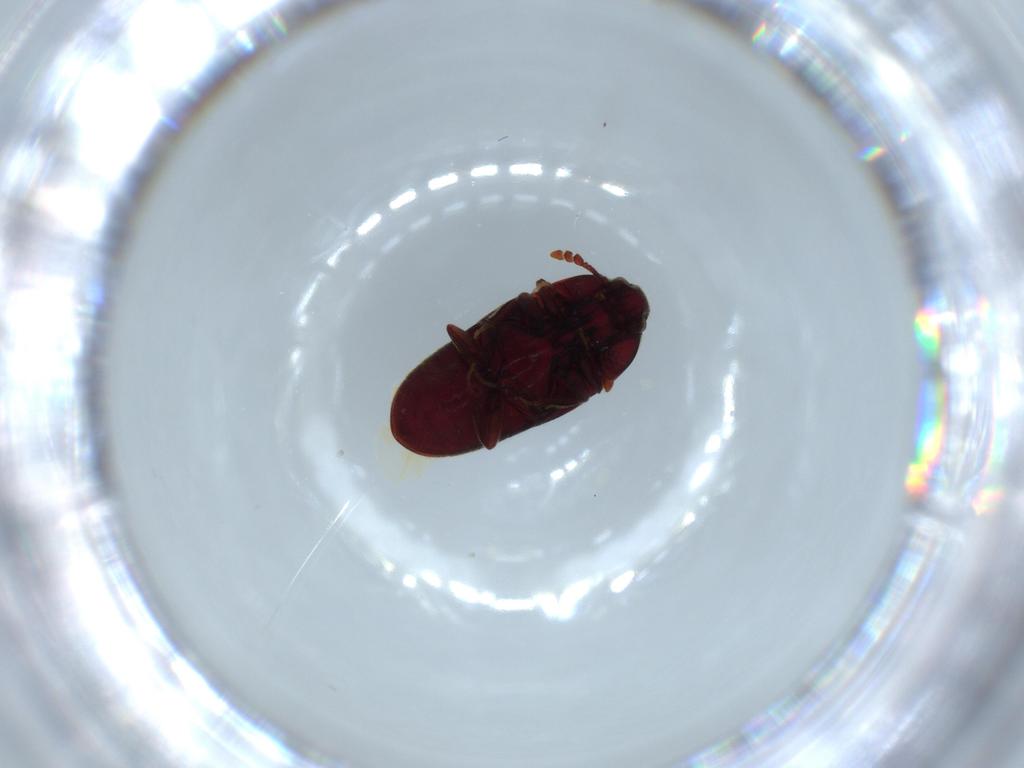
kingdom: Animalia
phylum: Arthropoda
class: Insecta
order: Coleoptera
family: Throscidae
